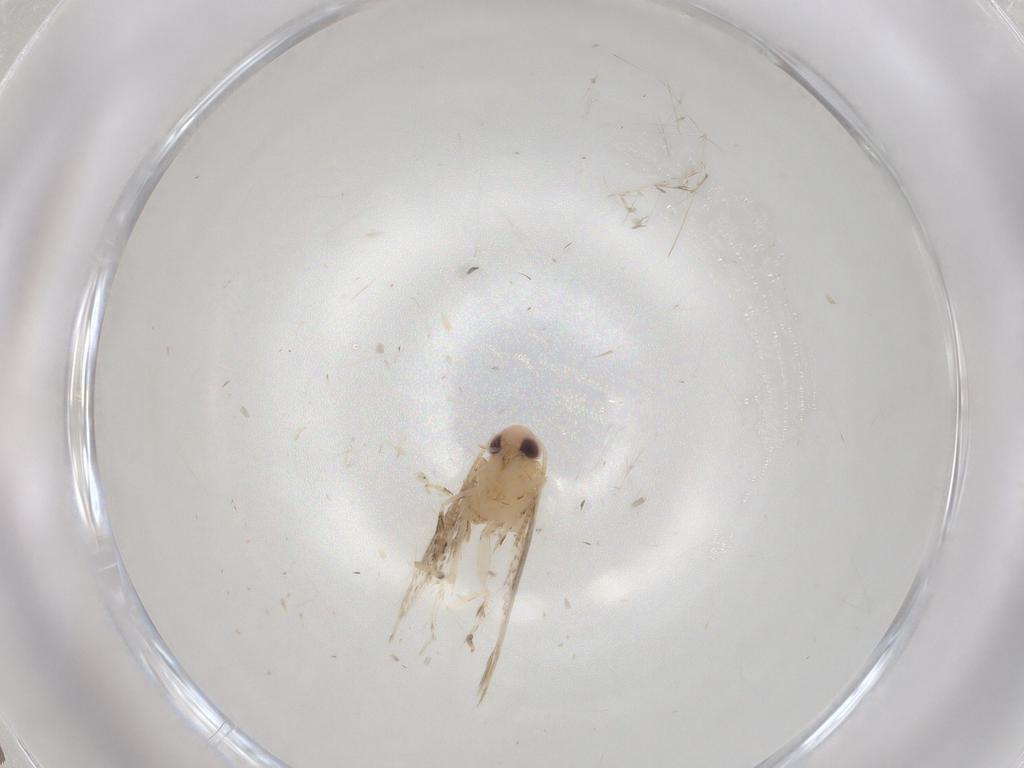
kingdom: Animalia
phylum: Arthropoda
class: Insecta
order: Lepidoptera
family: Gracillariidae
